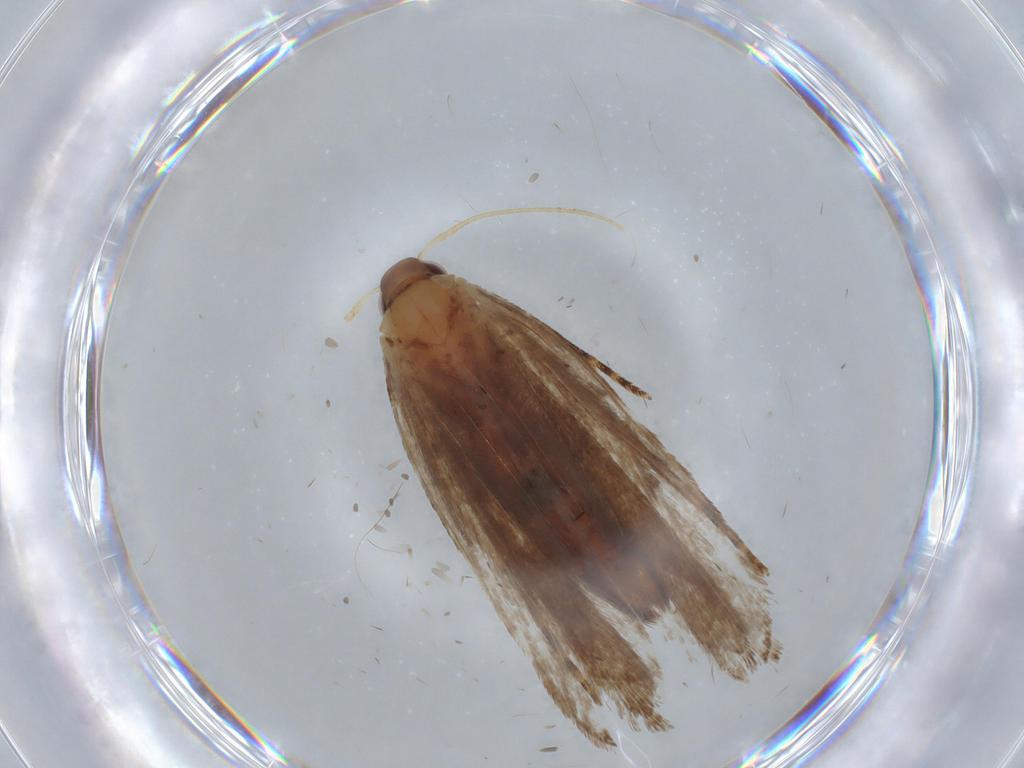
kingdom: Animalia
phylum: Arthropoda
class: Insecta
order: Lepidoptera
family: Gelechiidae
